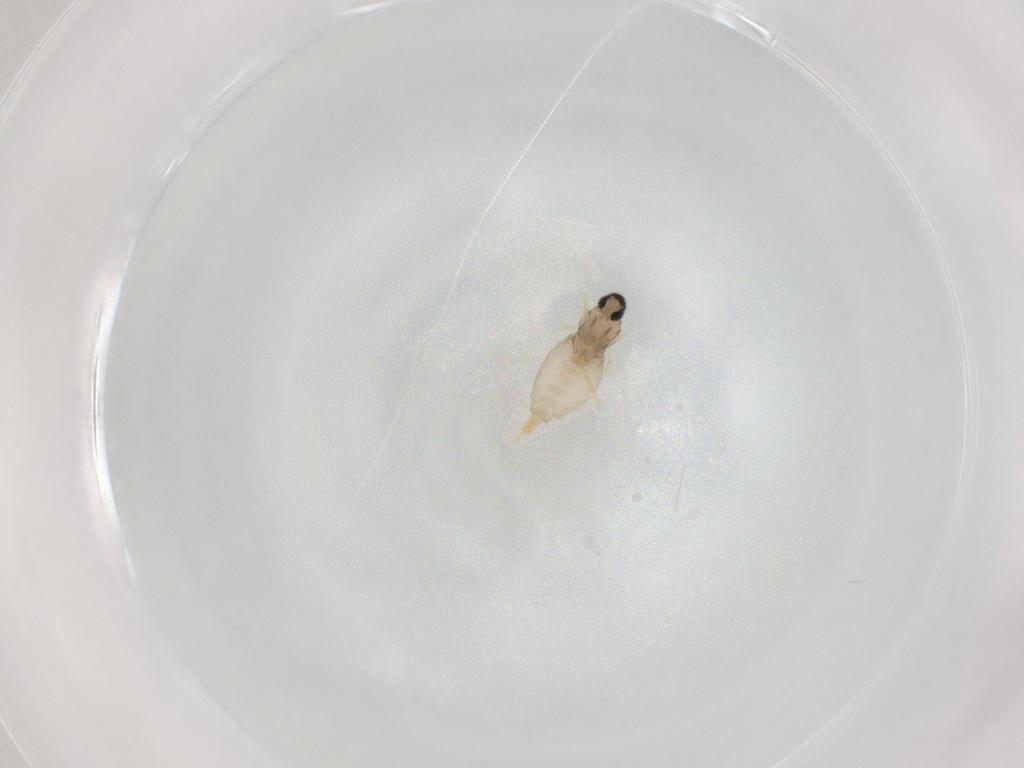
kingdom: Animalia
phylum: Arthropoda
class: Insecta
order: Diptera
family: Cecidomyiidae
